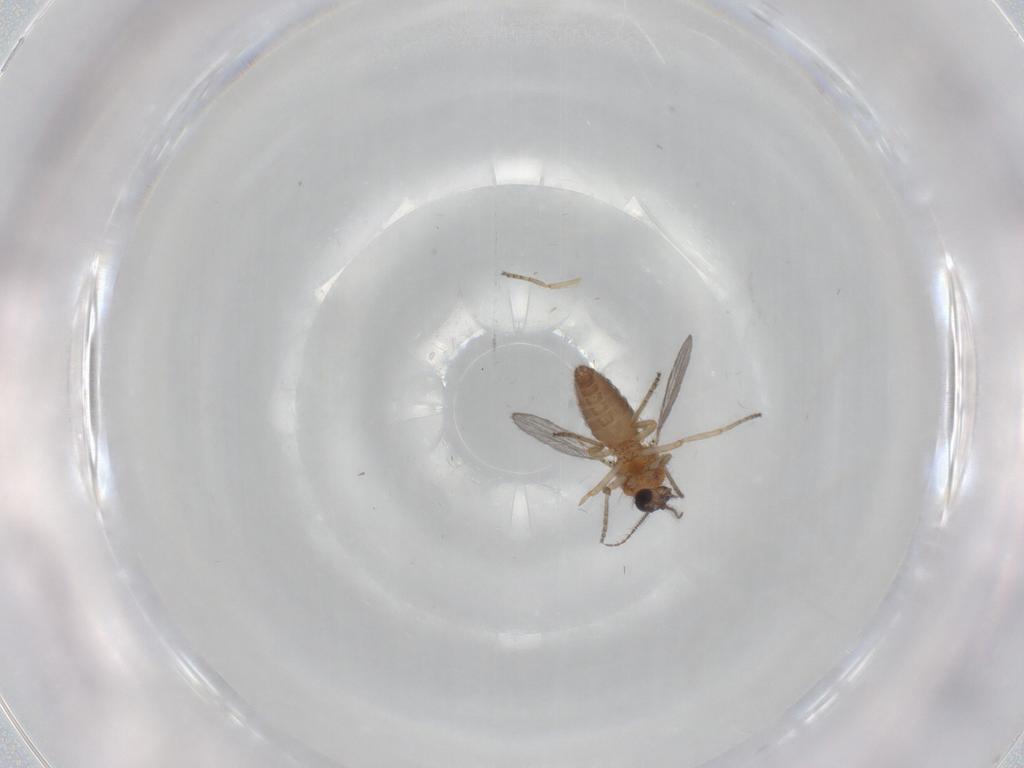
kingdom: Animalia
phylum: Arthropoda
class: Insecta
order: Diptera
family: Ceratopogonidae
